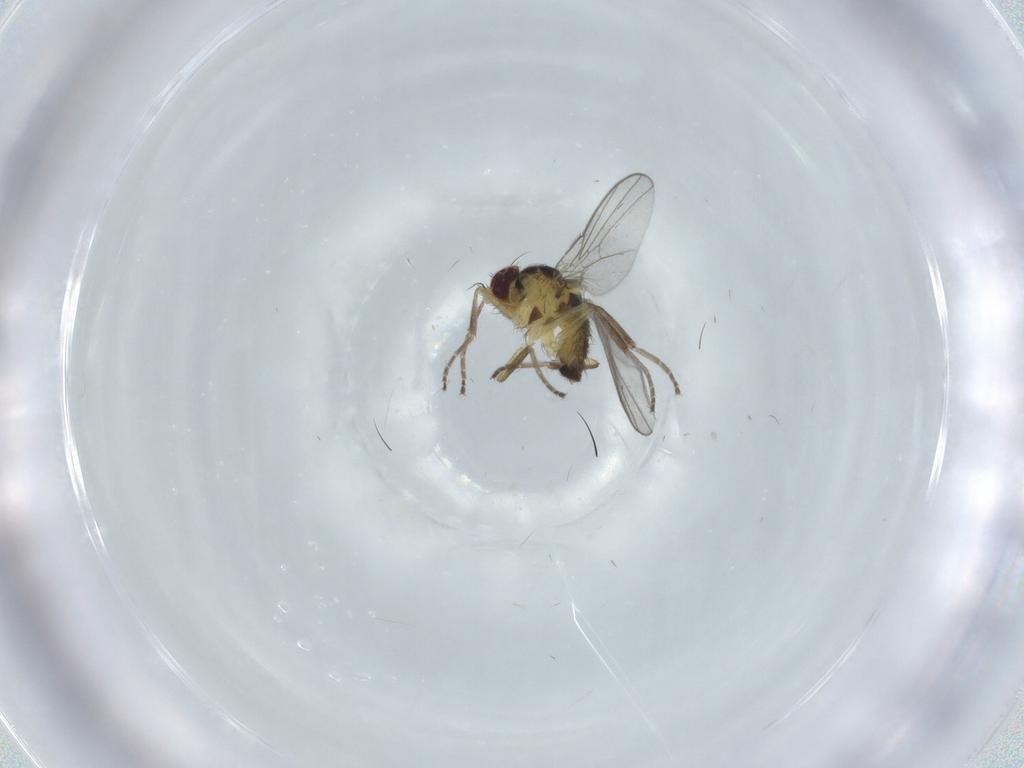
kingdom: Animalia
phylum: Arthropoda
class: Insecta
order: Diptera
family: Agromyzidae
